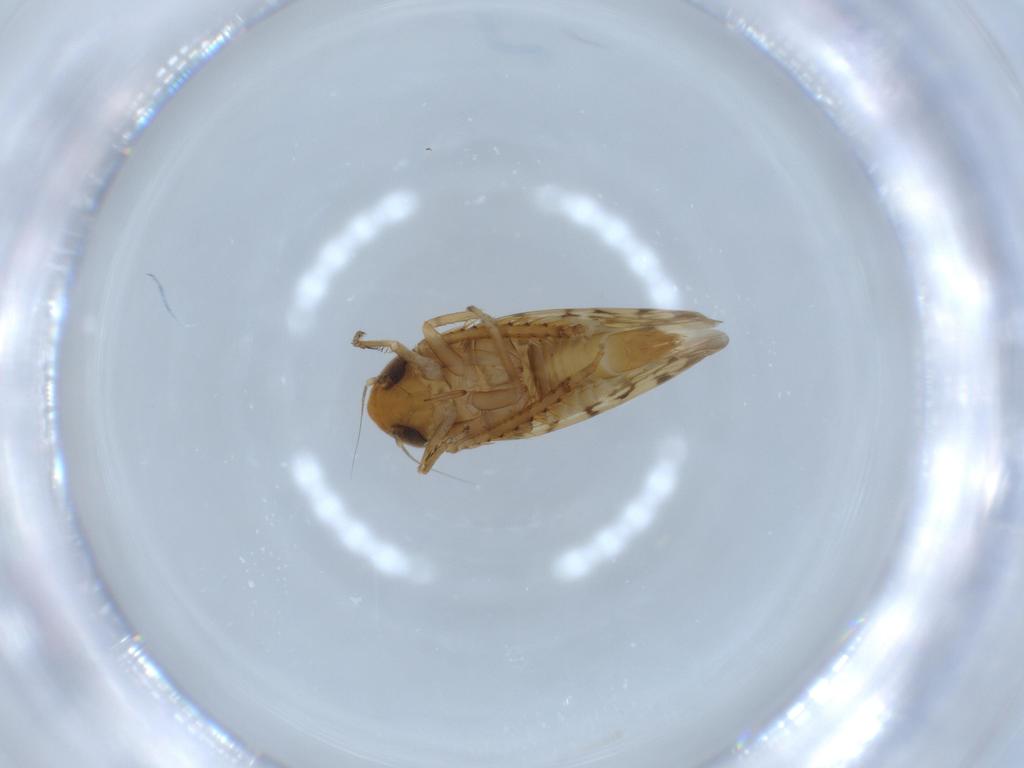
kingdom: Animalia
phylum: Arthropoda
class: Insecta
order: Hemiptera
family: Cicadellidae
